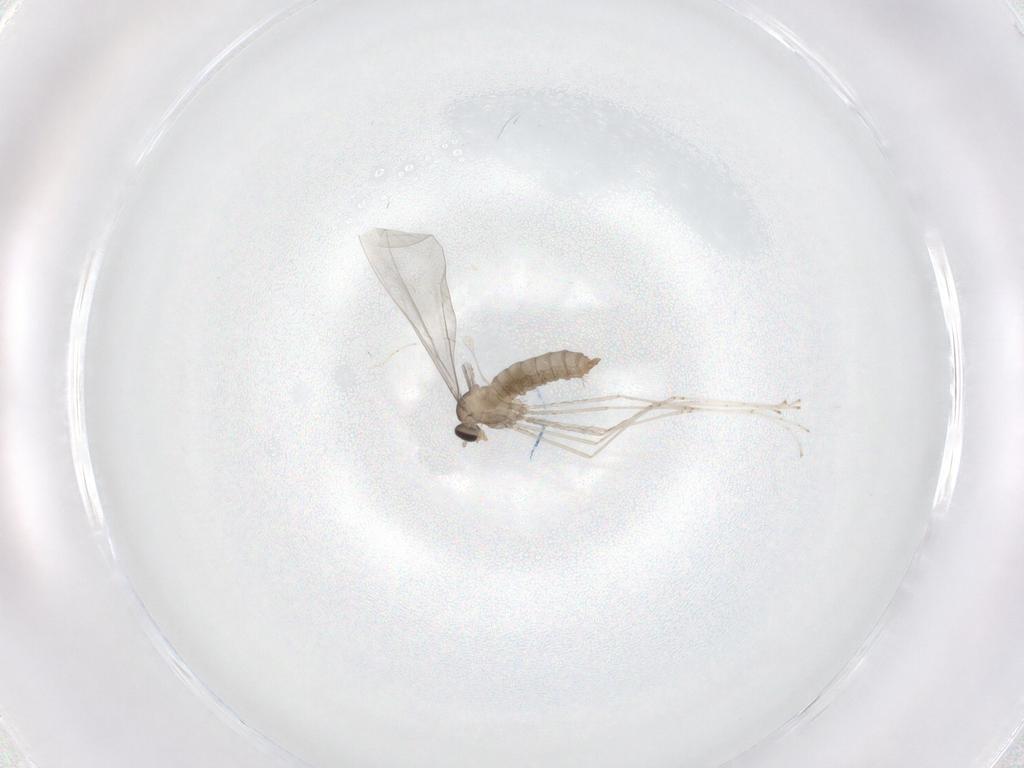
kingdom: Animalia
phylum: Arthropoda
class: Insecta
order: Diptera
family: Cecidomyiidae
